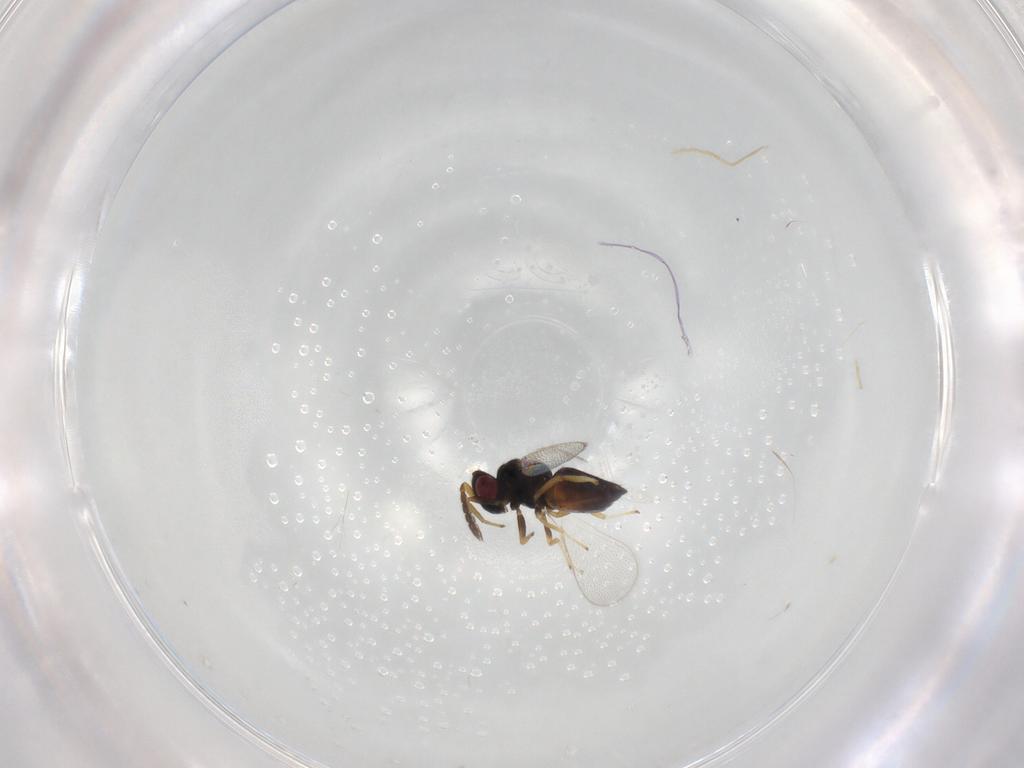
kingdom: Animalia
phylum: Arthropoda
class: Insecta
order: Hymenoptera
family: Eulophidae
